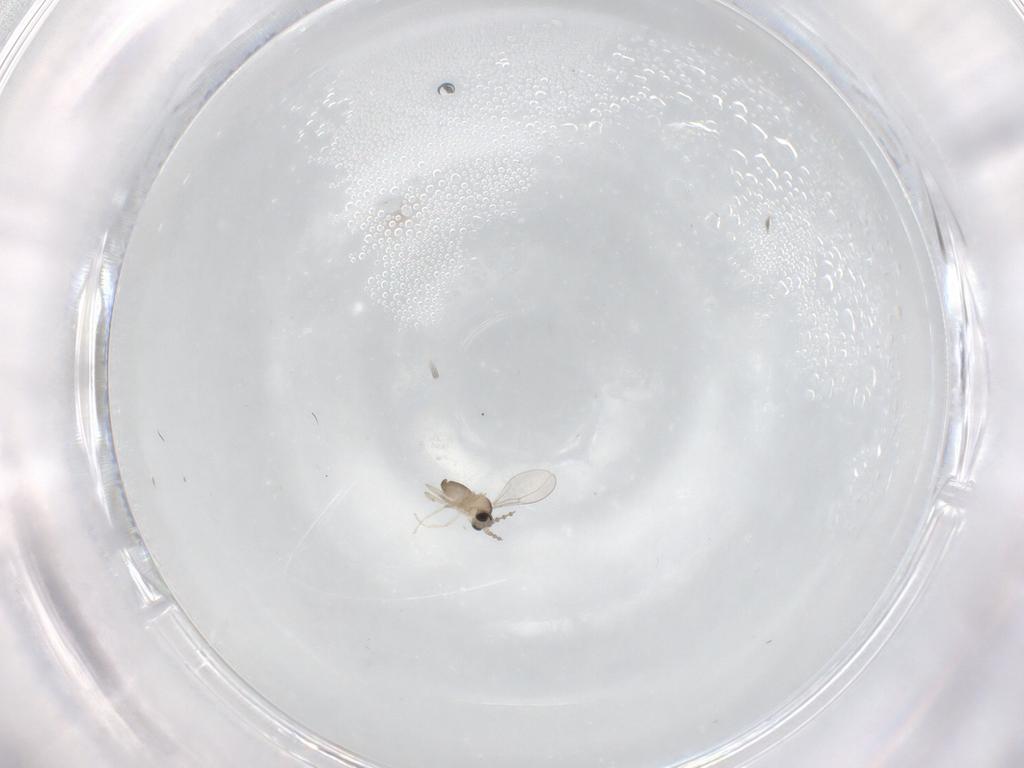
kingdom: Animalia
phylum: Arthropoda
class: Insecta
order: Diptera
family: Cecidomyiidae
